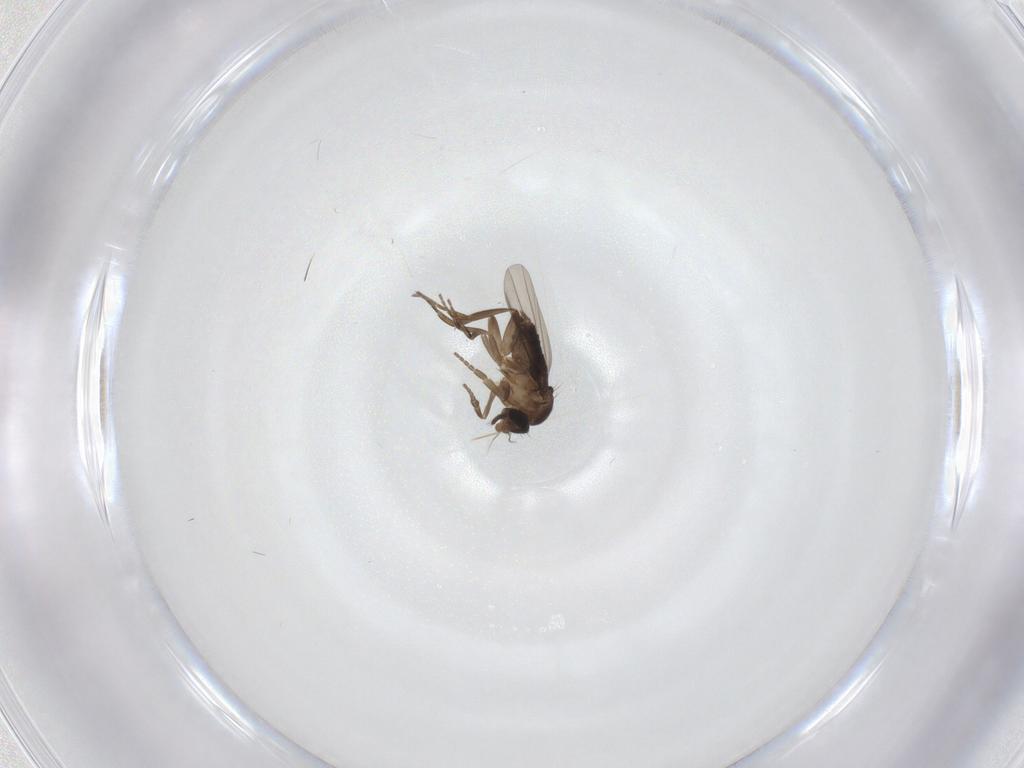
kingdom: Animalia
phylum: Arthropoda
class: Insecta
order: Diptera
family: Phoridae
